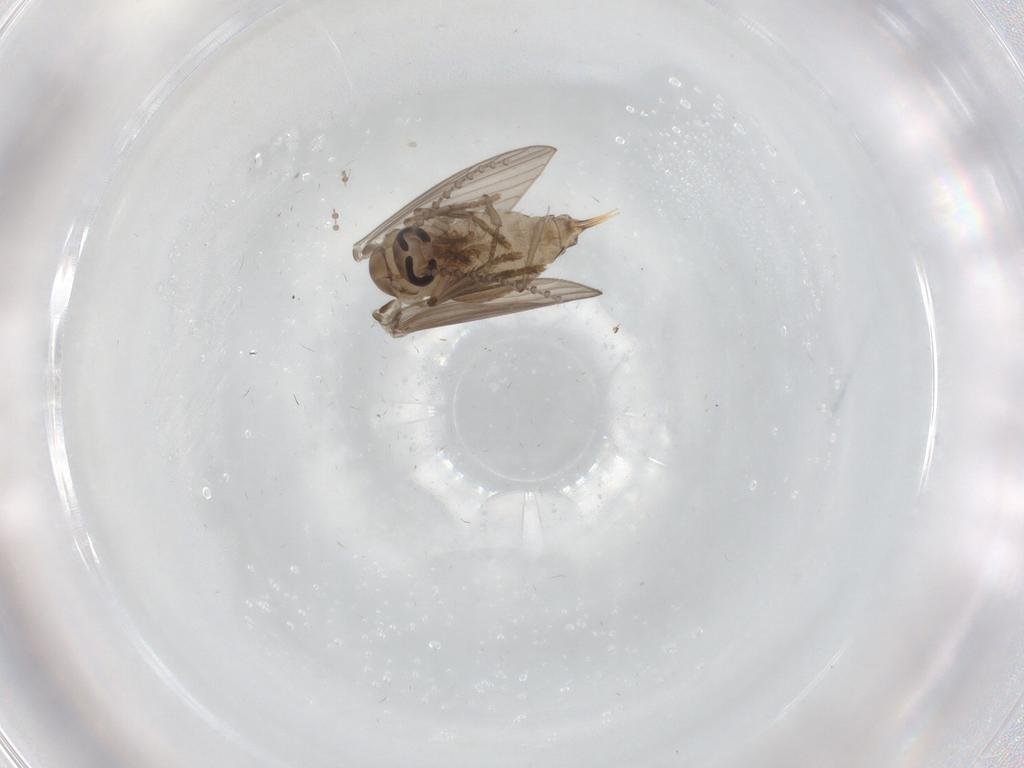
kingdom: Animalia
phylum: Arthropoda
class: Insecta
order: Diptera
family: Psychodidae
